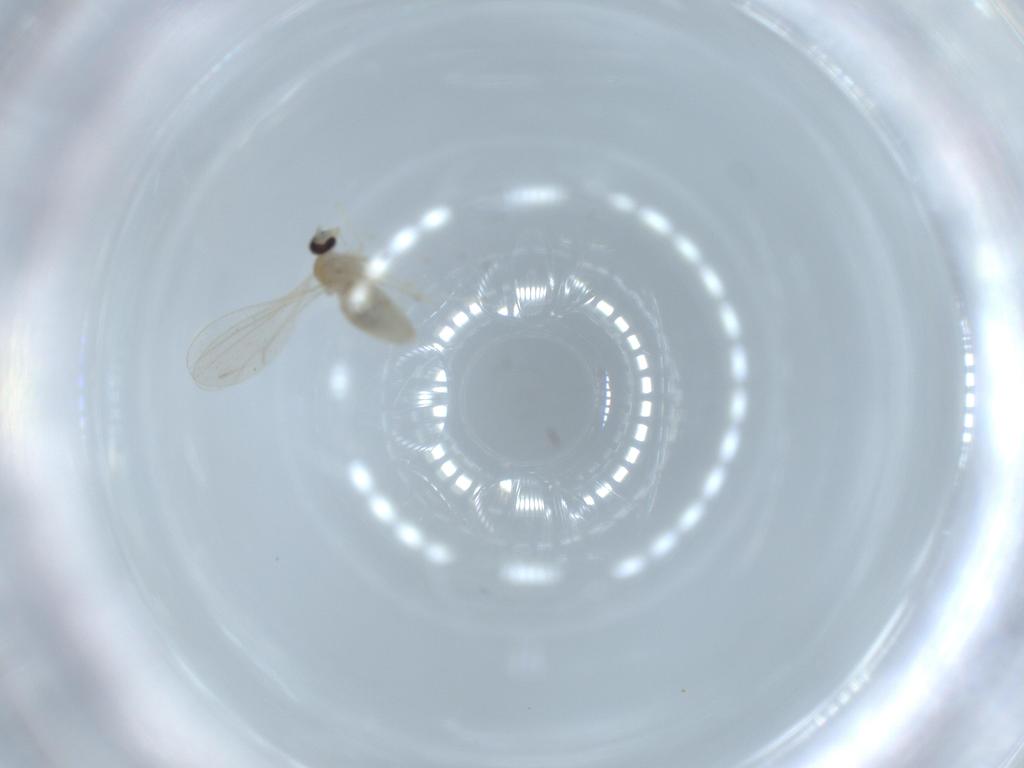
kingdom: Animalia
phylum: Arthropoda
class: Insecta
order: Diptera
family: Cecidomyiidae
